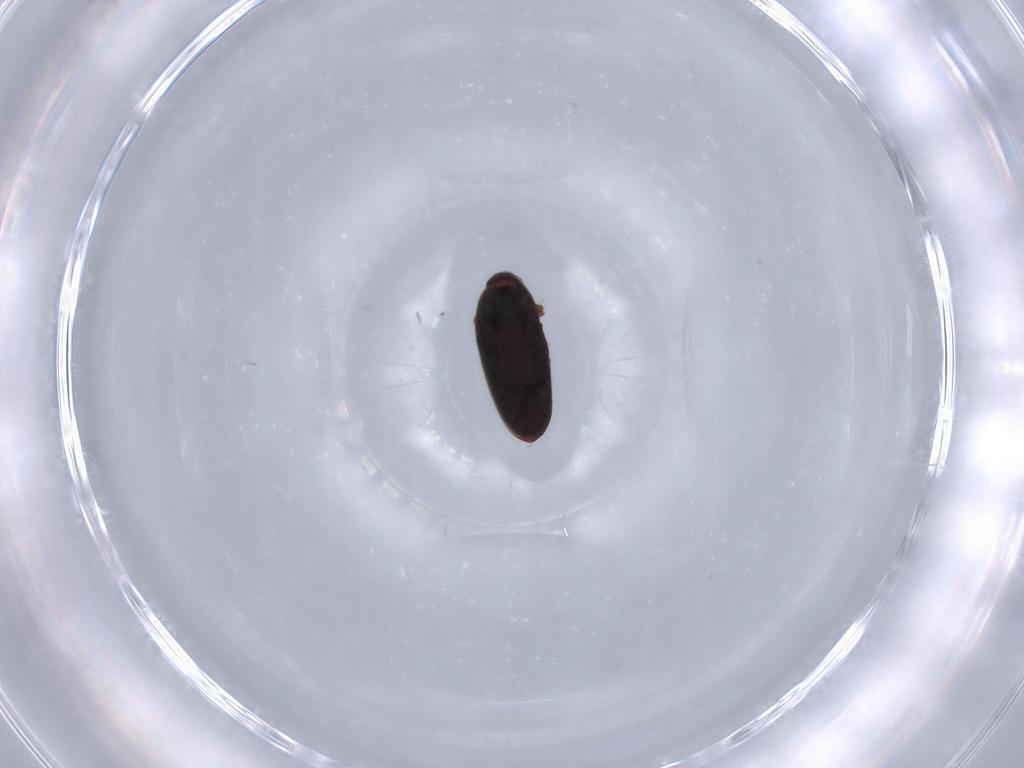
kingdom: Animalia
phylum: Arthropoda
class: Insecta
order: Coleoptera
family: Throscidae
